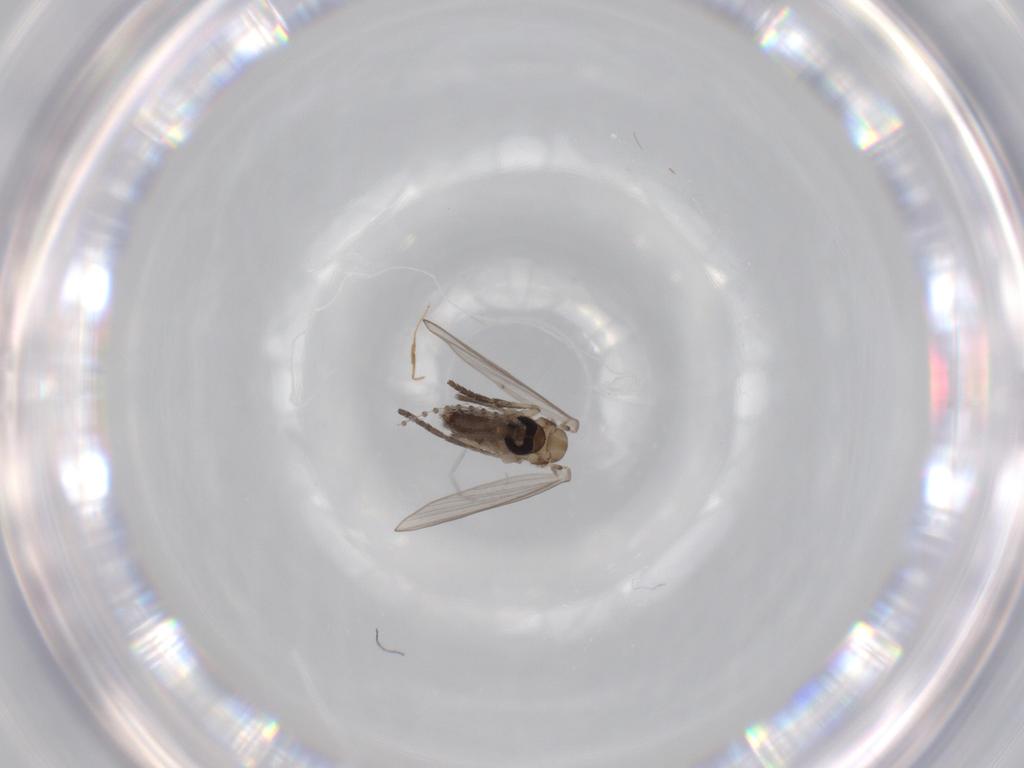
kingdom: Animalia
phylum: Arthropoda
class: Insecta
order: Diptera
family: Psychodidae
